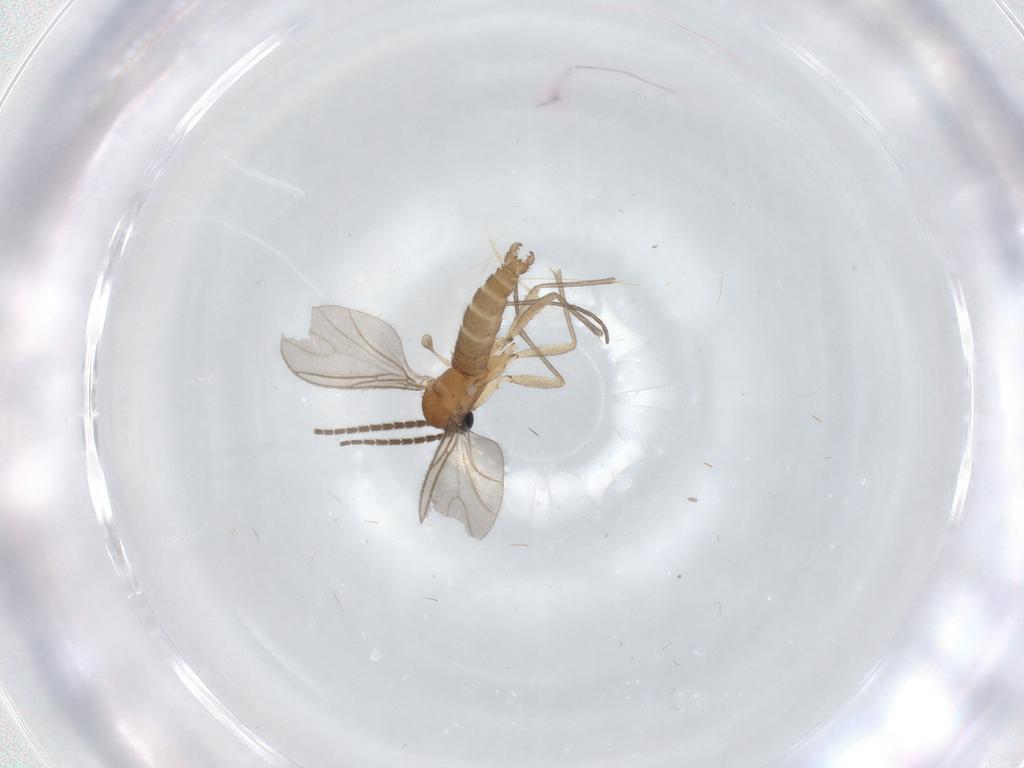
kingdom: Animalia
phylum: Arthropoda
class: Insecta
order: Diptera
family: Sciaridae
